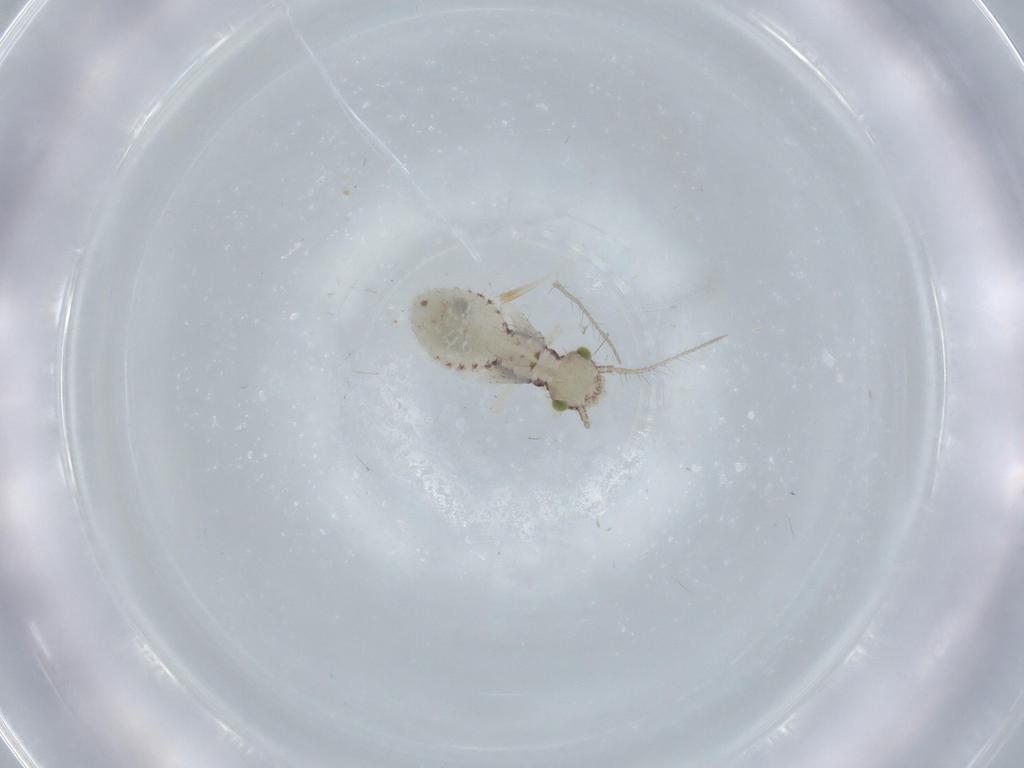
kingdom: Animalia
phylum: Arthropoda
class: Insecta
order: Psocodea
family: Pseudocaeciliidae
